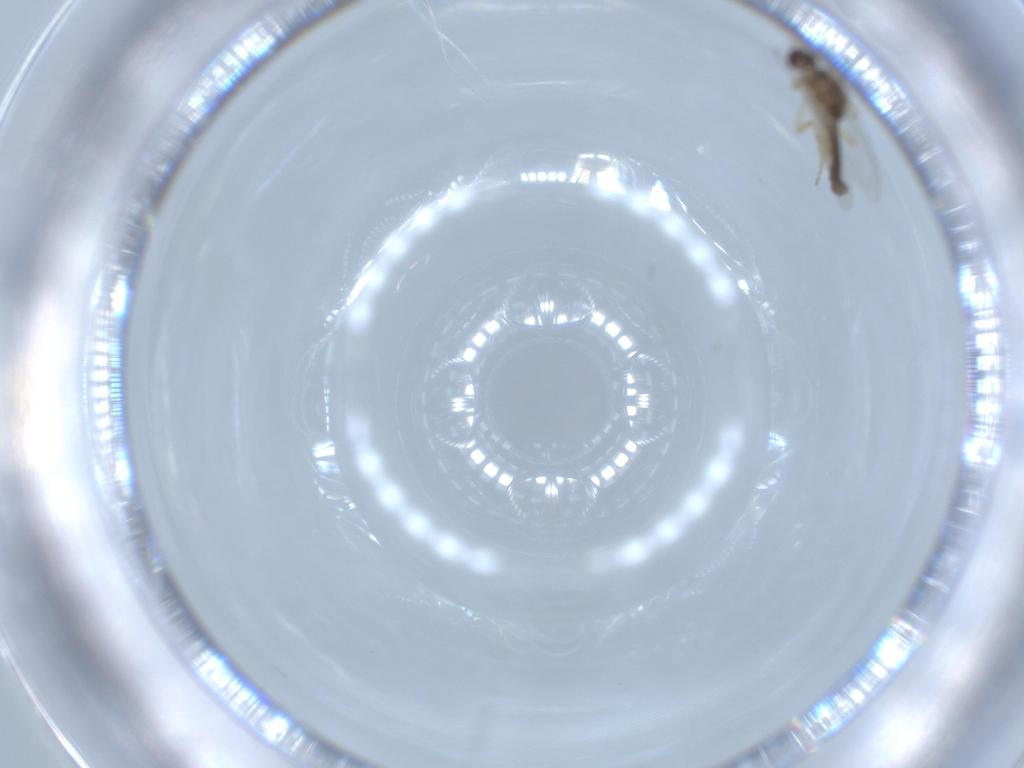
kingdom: Animalia
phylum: Arthropoda
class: Insecta
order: Diptera
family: Ceratopogonidae
